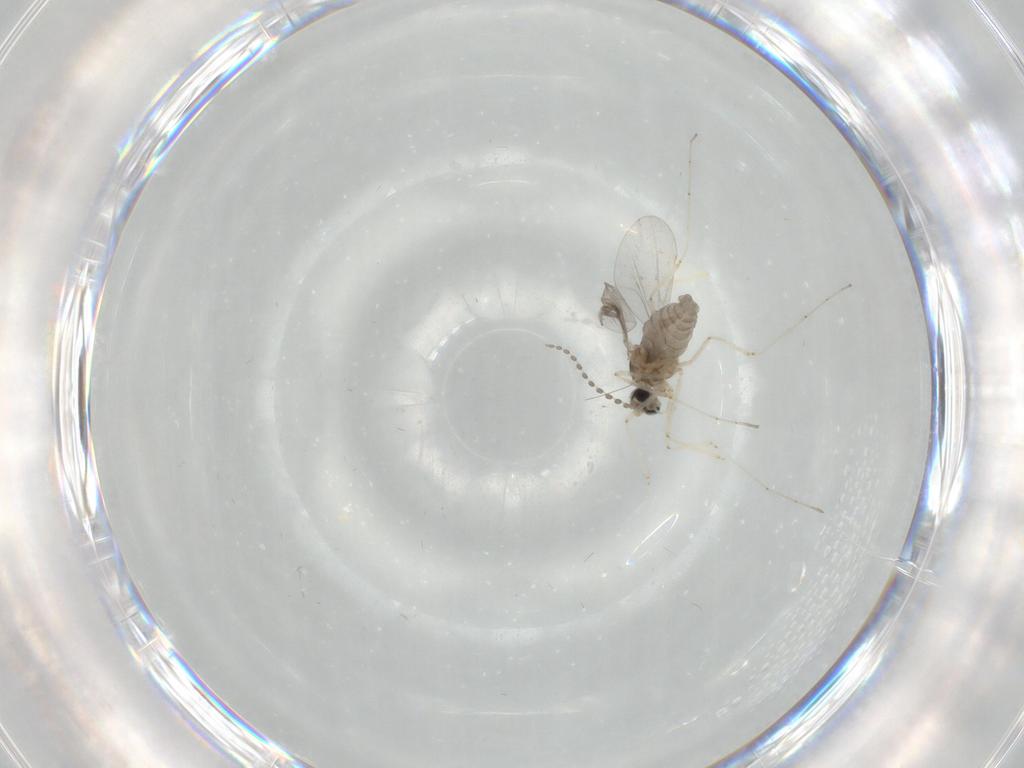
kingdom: Animalia
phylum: Arthropoda
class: Insecta
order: Diptera
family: Cecidomyiidae
